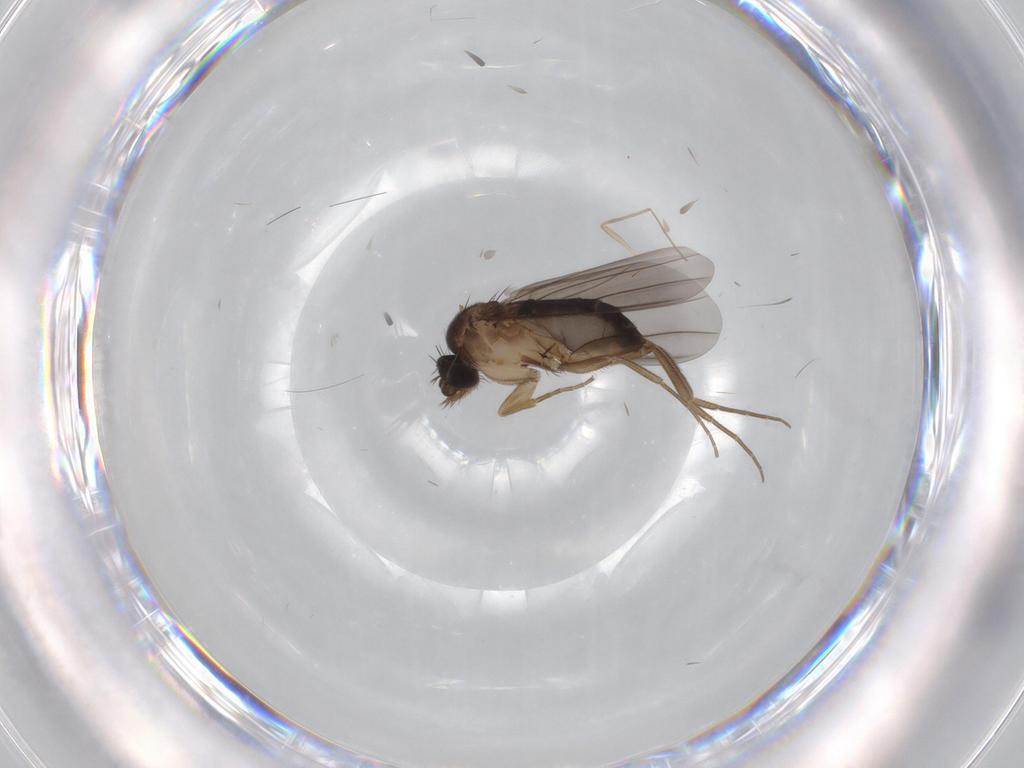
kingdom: Animalia
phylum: Arthropoda
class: Insecta
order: Diptera
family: Phoridae
